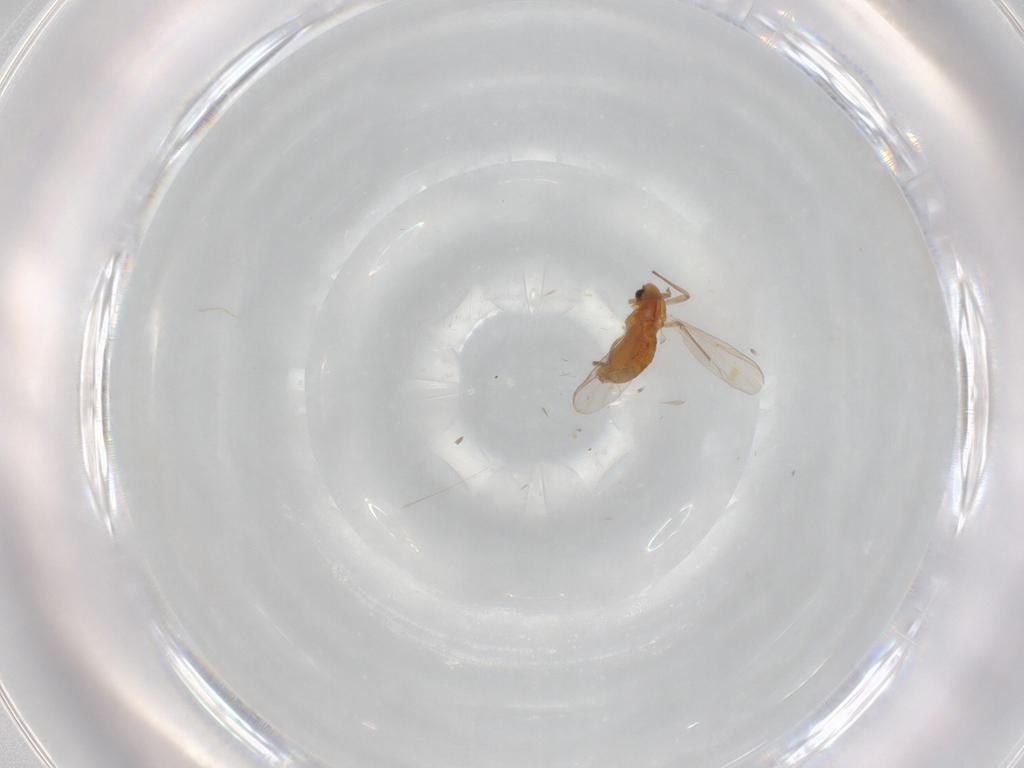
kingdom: Animalia
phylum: Arthropoda
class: Insecta
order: Diptera
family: Chironomidae
